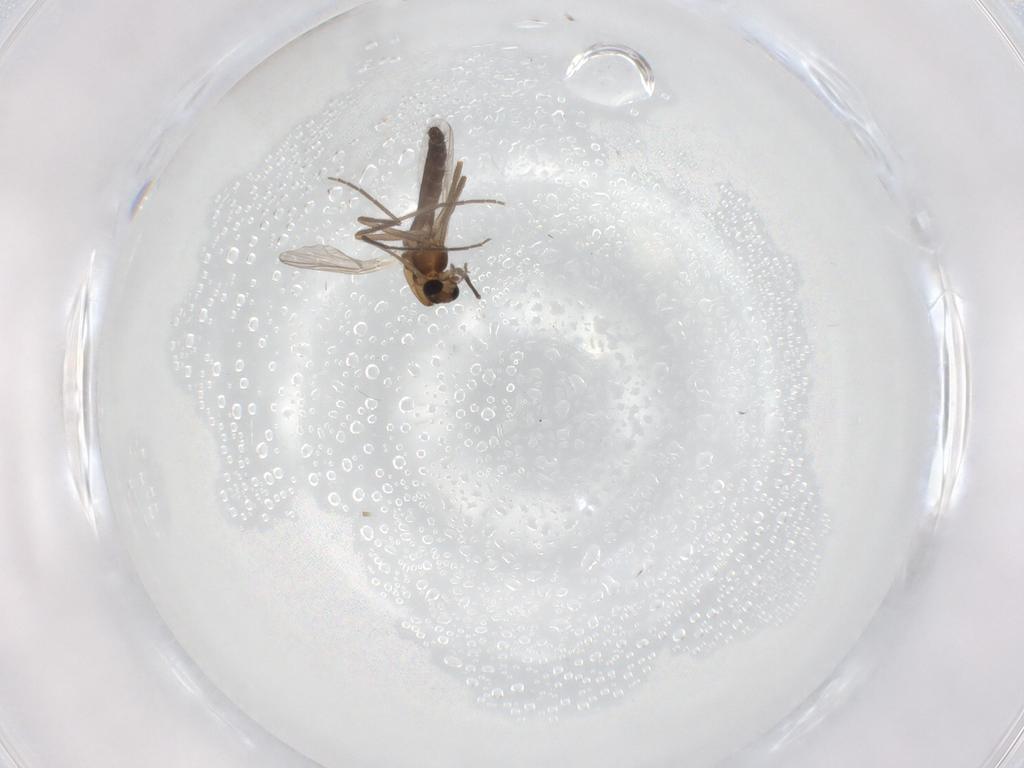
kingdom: Animalia
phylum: Arthropoda
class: Insecta
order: Diptera
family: Chironomidae
